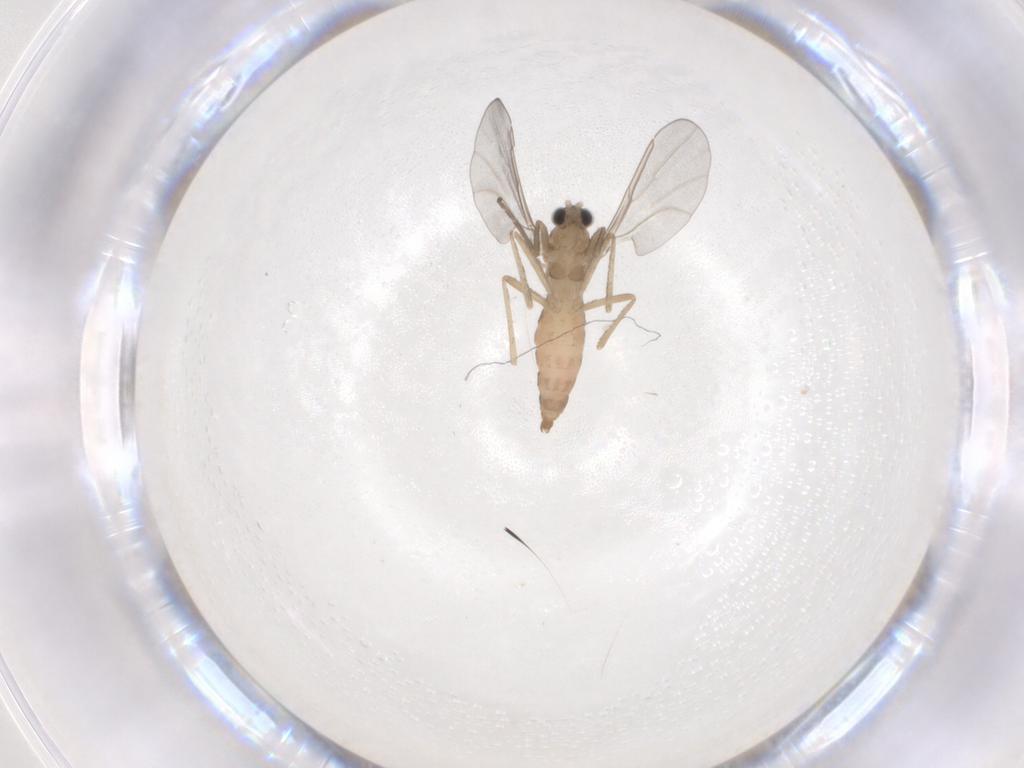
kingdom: Animalia
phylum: Arthropoda
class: Insecta
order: Diptera
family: Cecidomyiidae
